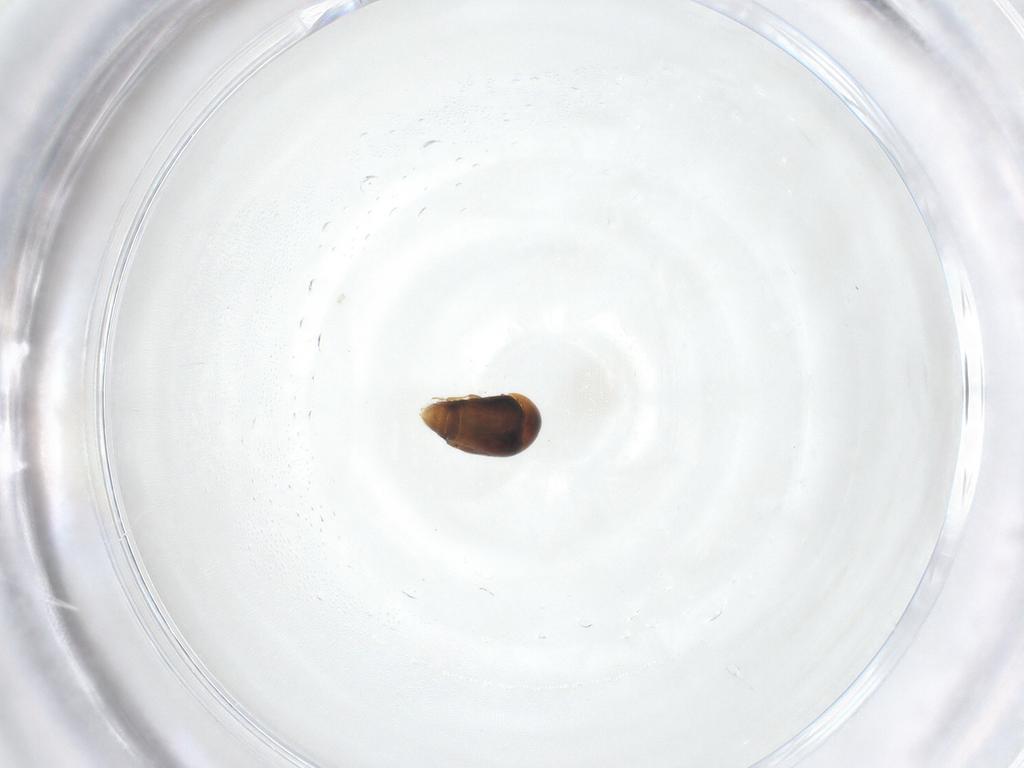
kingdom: Animalia
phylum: Arthropoda
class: Insecta
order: Coleoptera
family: Corylophidae
